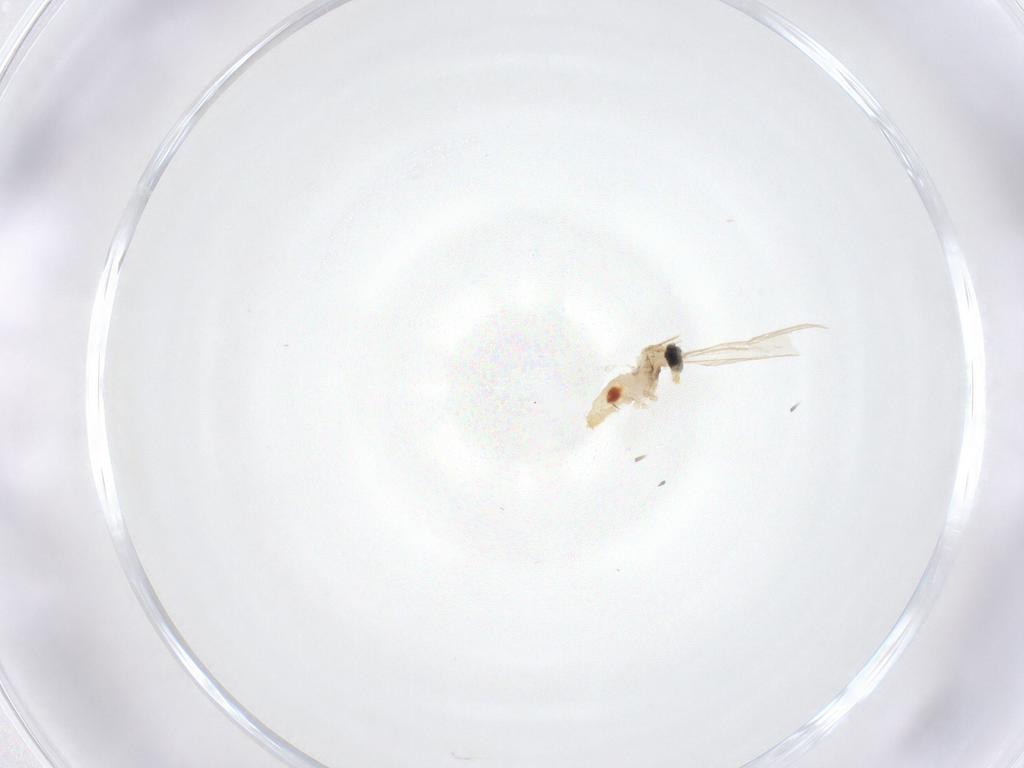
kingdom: Animalia
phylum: Arthropoda
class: Insecta
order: Diptera
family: Cecidomyiidae
